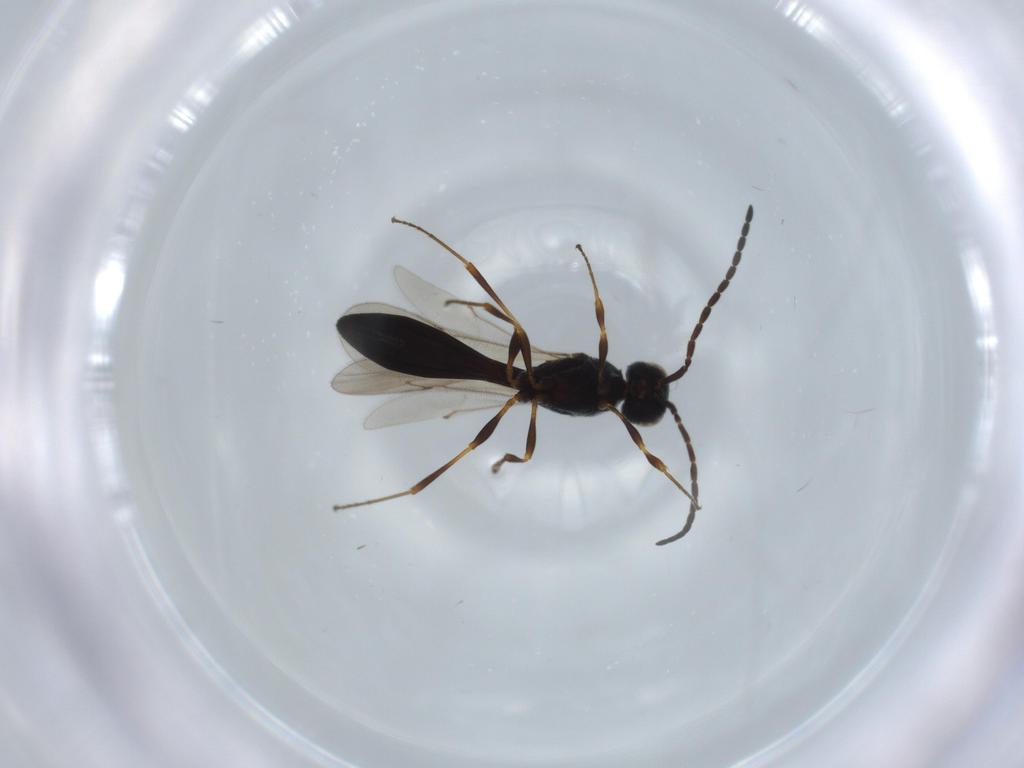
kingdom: Animalia
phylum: Arthropoda
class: Insecta
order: Hymenoptera
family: Scelionidae
